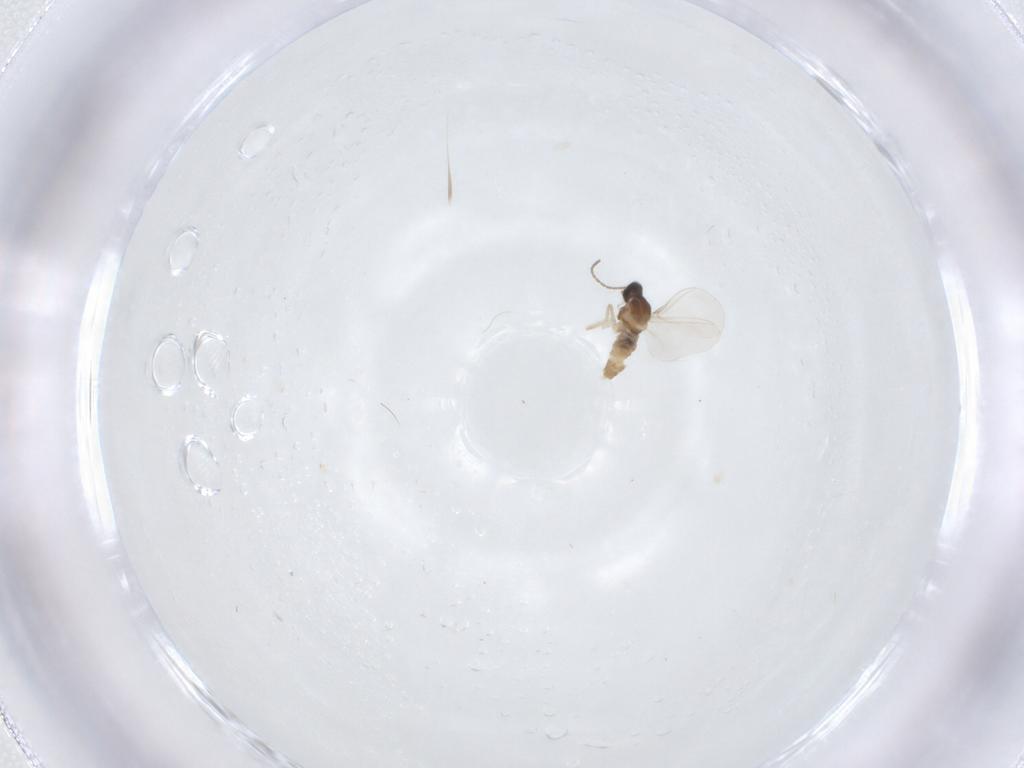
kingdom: Animalia
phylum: Arthropoda
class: Insecta
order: Diptera
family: Cecidomyiidae
